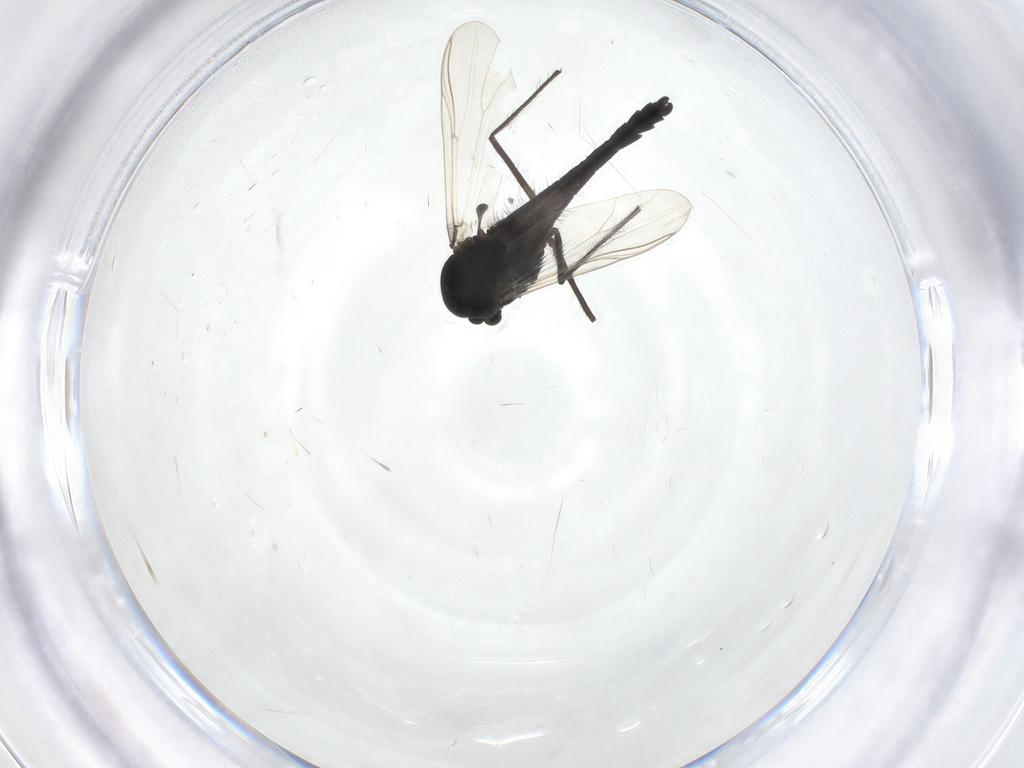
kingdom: Animalia
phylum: Arthropoda
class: Insecta
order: Diptera
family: Chironomidae
